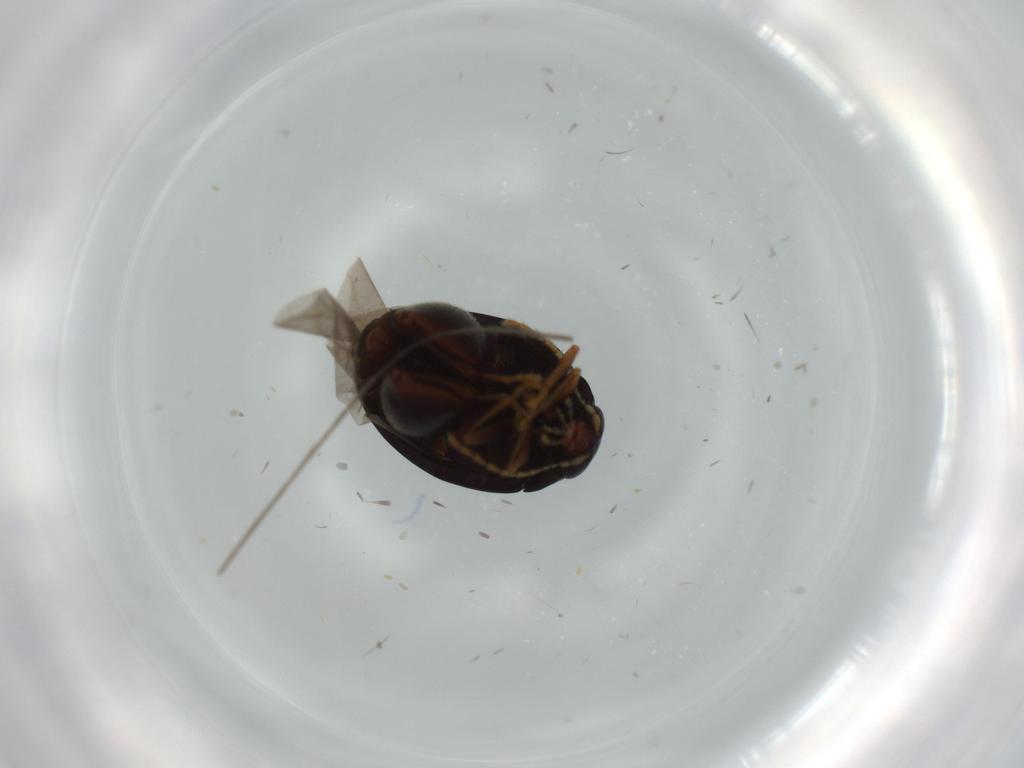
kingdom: Animalia
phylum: Arthropoda
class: Insecta
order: Coleoptera
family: Chrysomelidae
